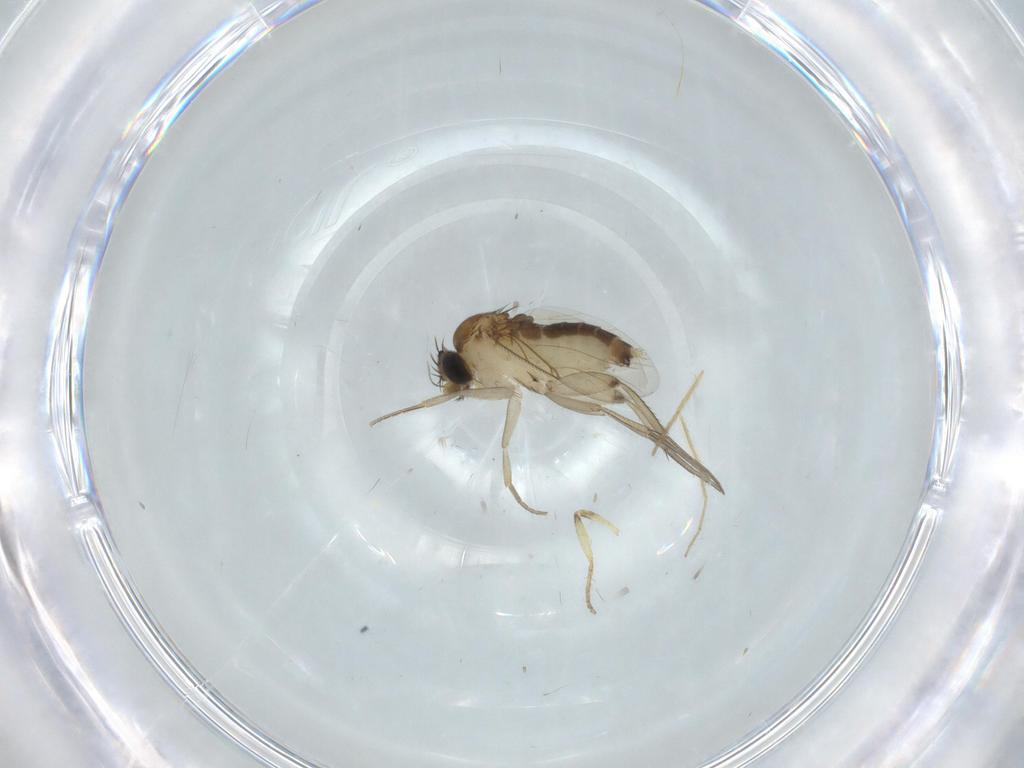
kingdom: Animalia
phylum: Arthropoda
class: Insecta
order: Diptera
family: Phoridae
